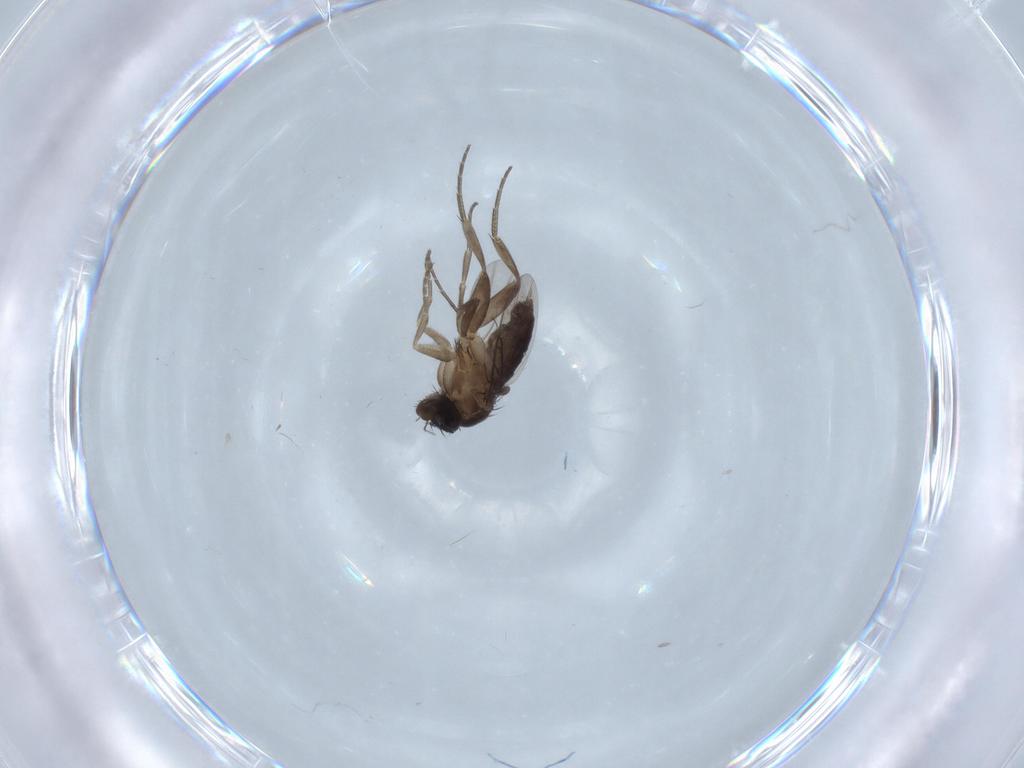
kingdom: Animalia
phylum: Arthropoda
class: Insecta
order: Diptera
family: Phoridae
